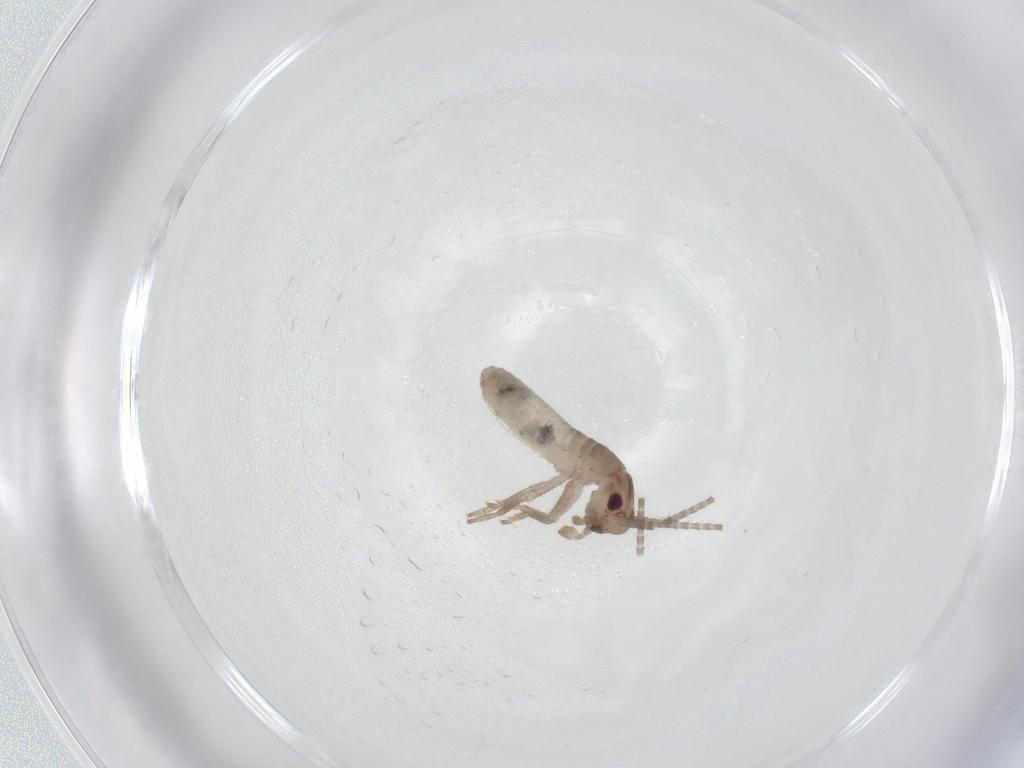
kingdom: Animalia
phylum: Arthropoda
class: Insecta
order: Orthoptera
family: Mogoplistidae
